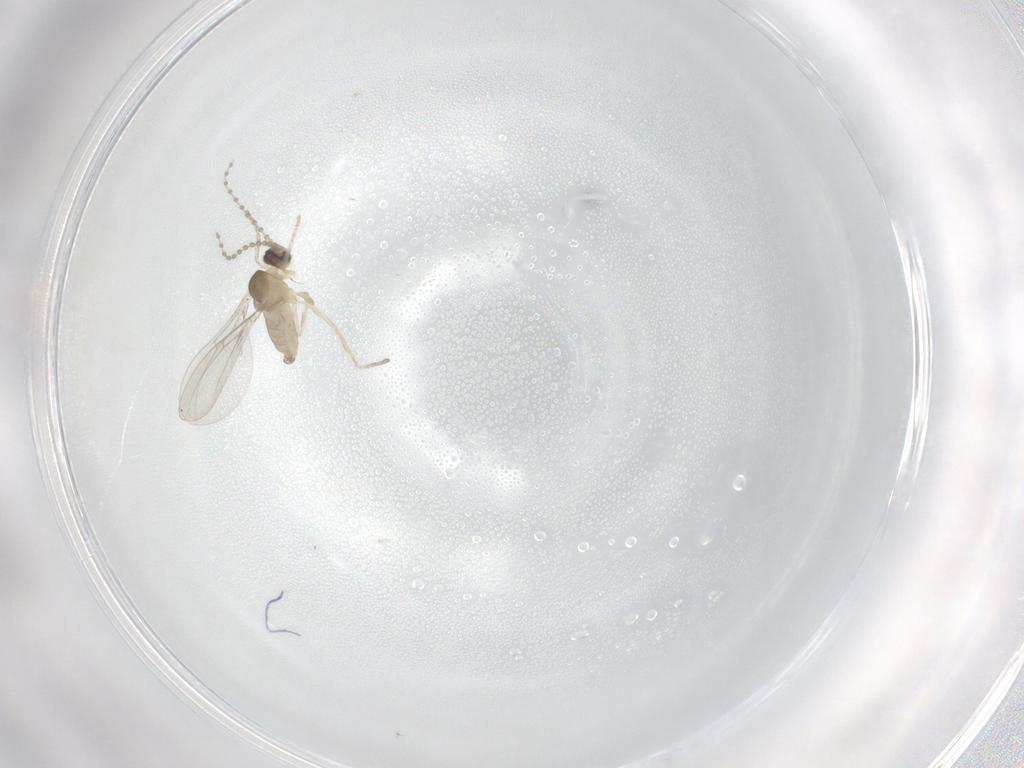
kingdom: Animalia
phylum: Arthropoda
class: Insecta
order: Diptera
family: Cecidomyiidae
